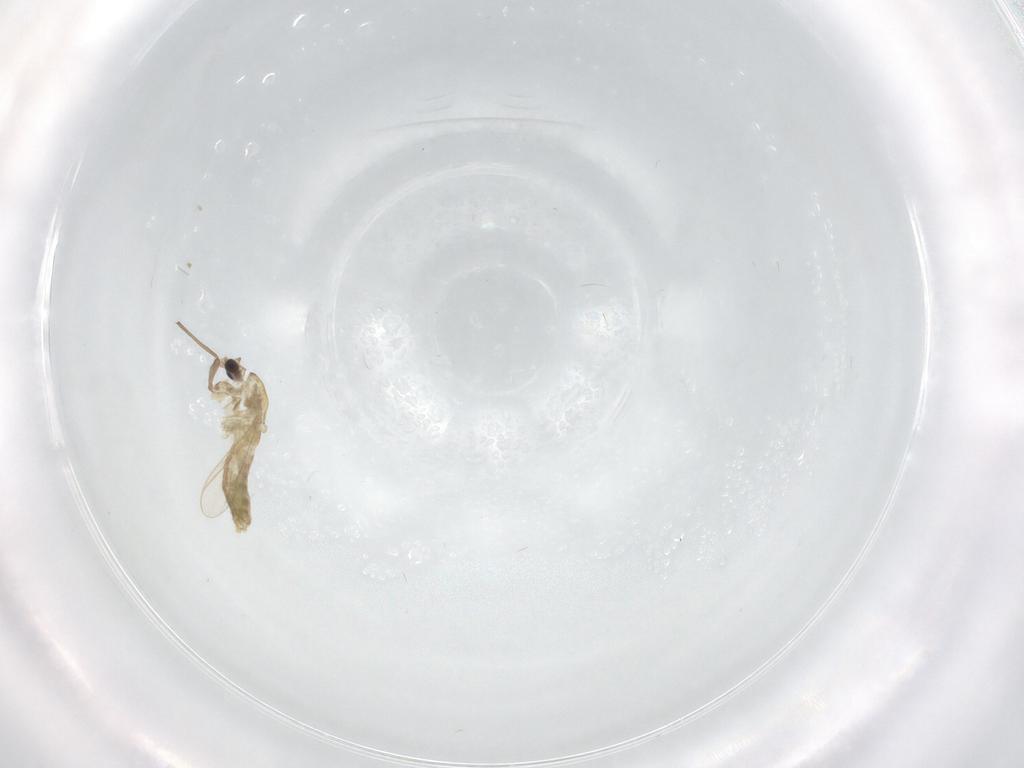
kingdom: Animalia
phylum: Arthropoda
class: Insecta
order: Diptera
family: Chironomidae
